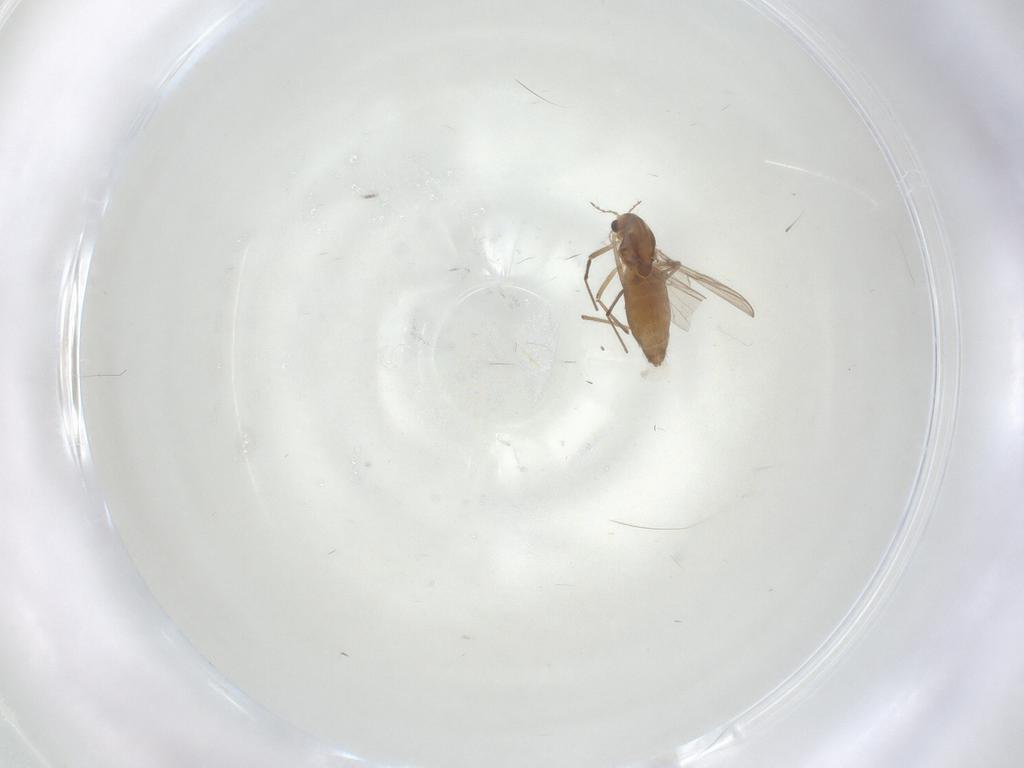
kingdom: Animalia
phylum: Arthropoda
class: Insecta
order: Diptera
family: Chironomidae
